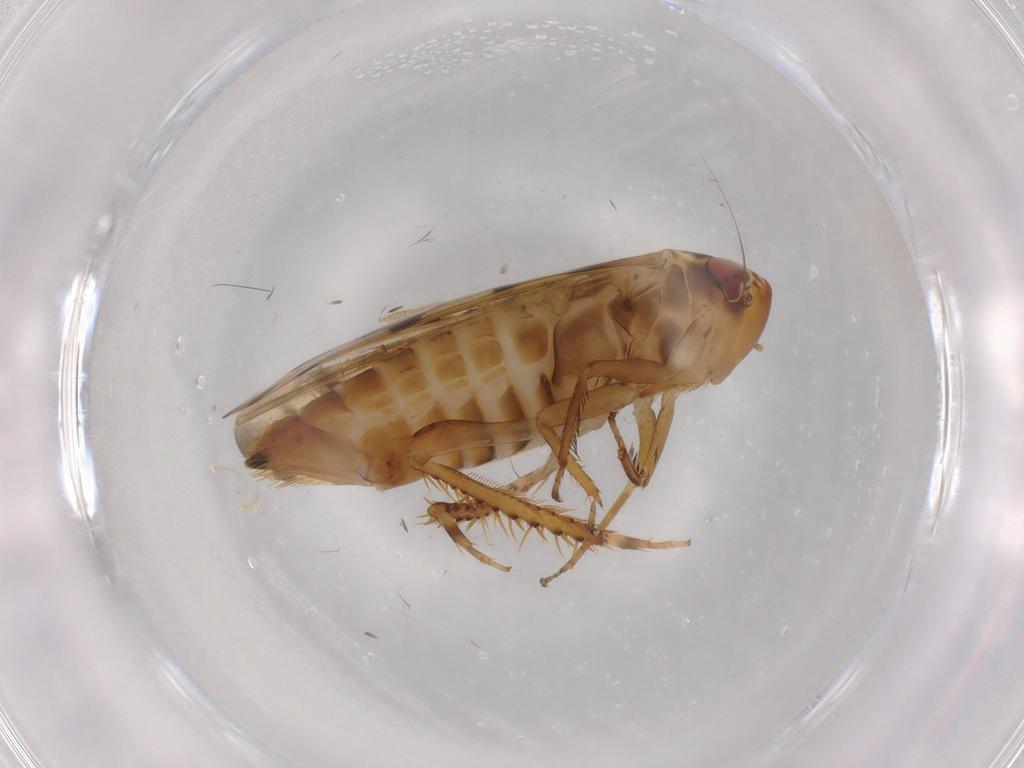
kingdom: Animalia
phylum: Arthropoda
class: Insecta
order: Hemiptera
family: Cicadellidae
